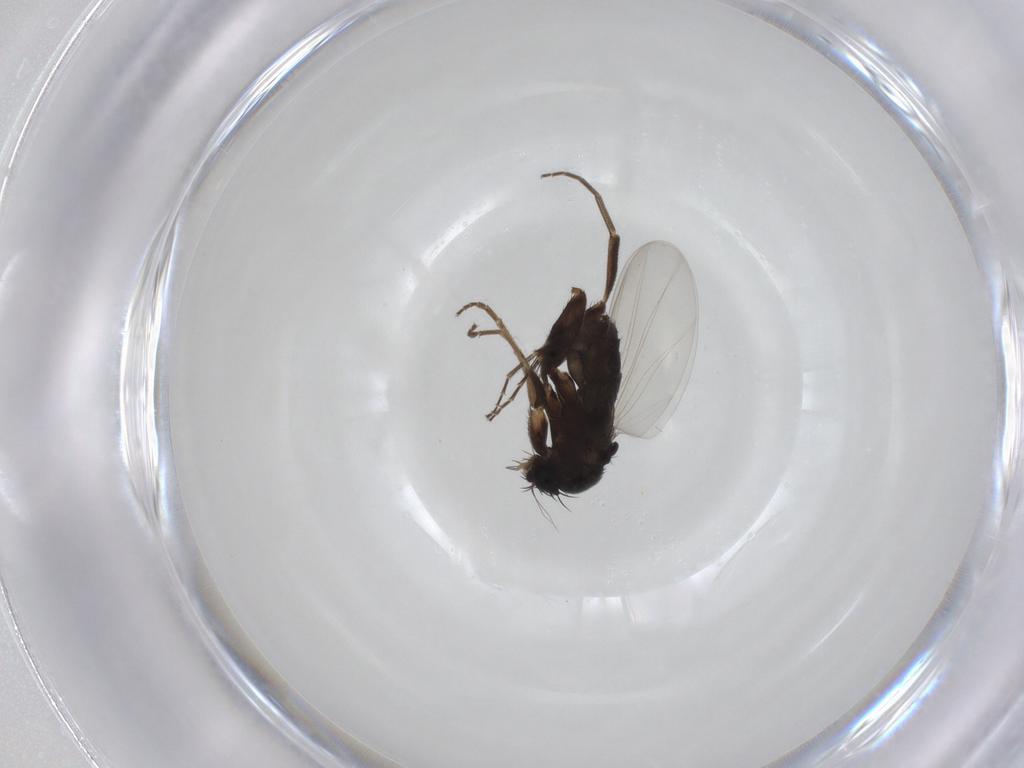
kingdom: Animalia
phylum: Arthropoda
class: Insecta
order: Diptera
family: Phoridae
